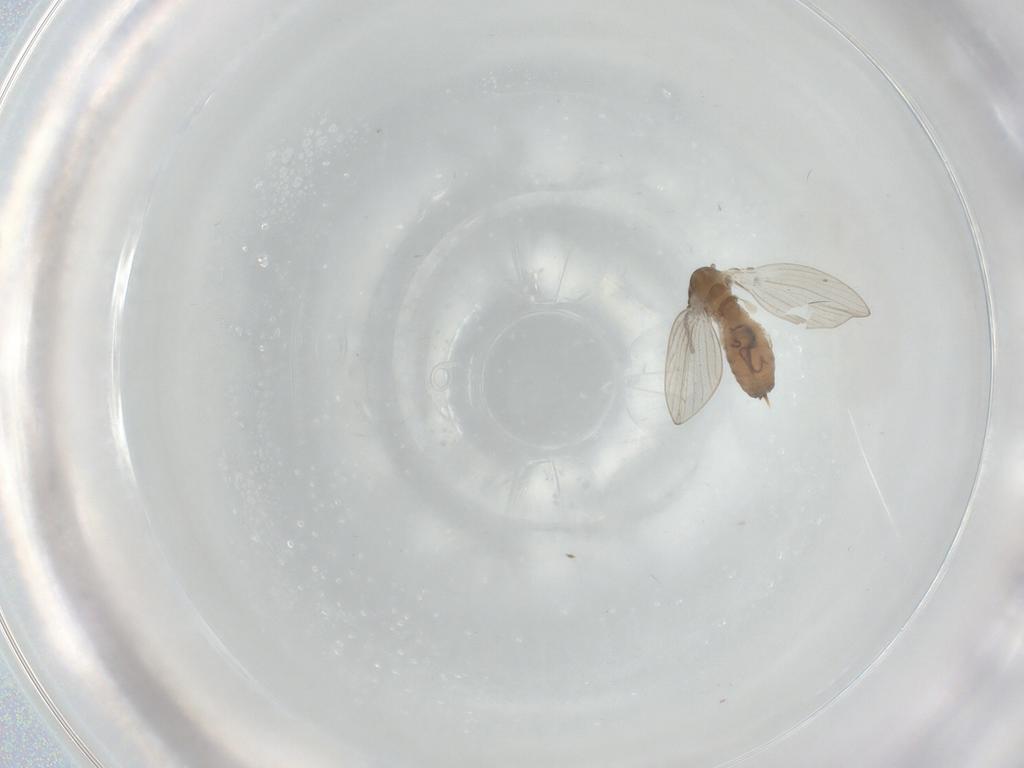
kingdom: Animalia
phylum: Arthropoda
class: Insecta
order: Diptera
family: Psychodidae
